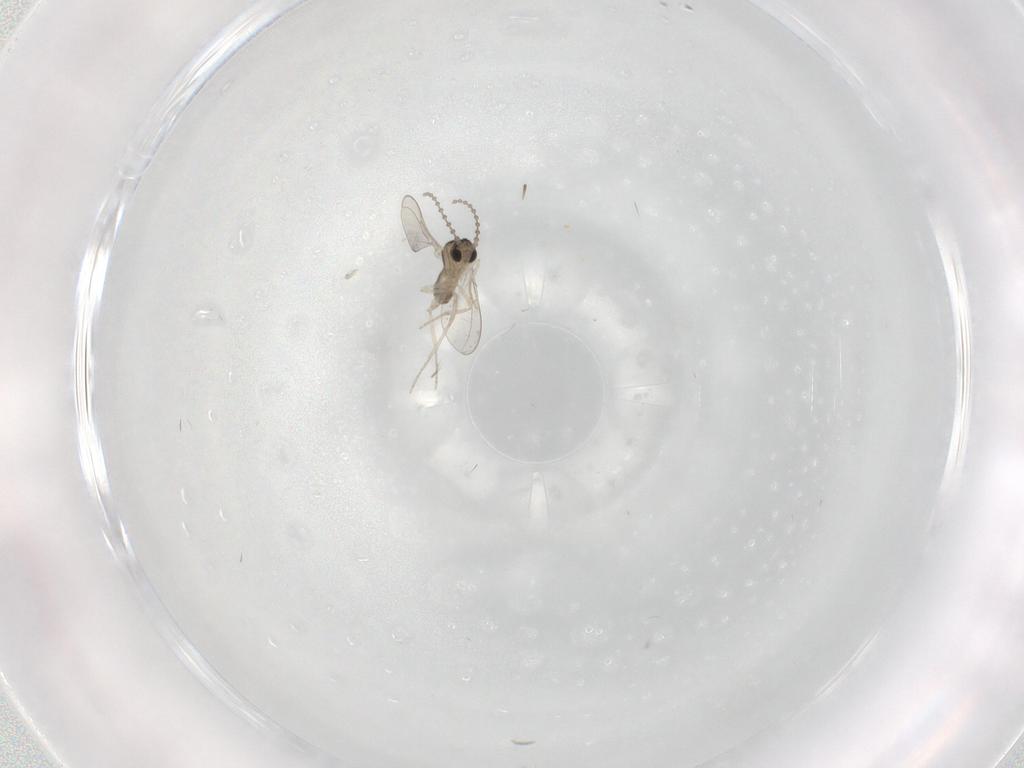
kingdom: Animalia
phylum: Arthropoda
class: Insecta
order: Diptera
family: Cecidomyiidae
